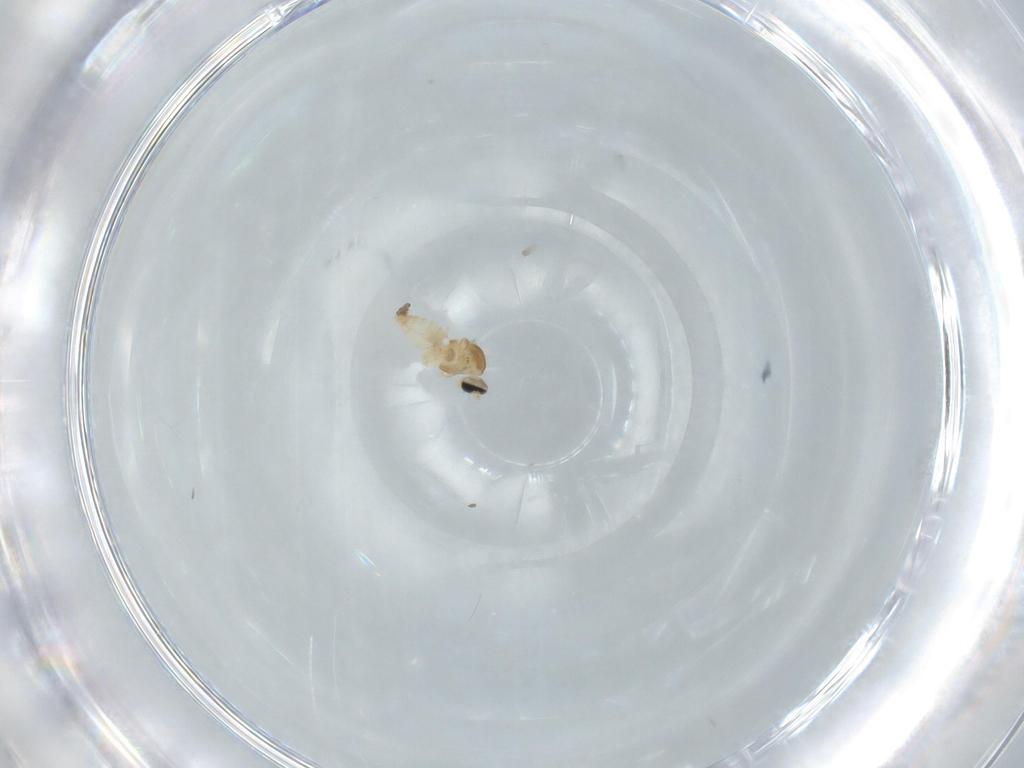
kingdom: Animalia
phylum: Arthropoda
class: Insecta
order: Diptera
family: Cecidomyiidae
